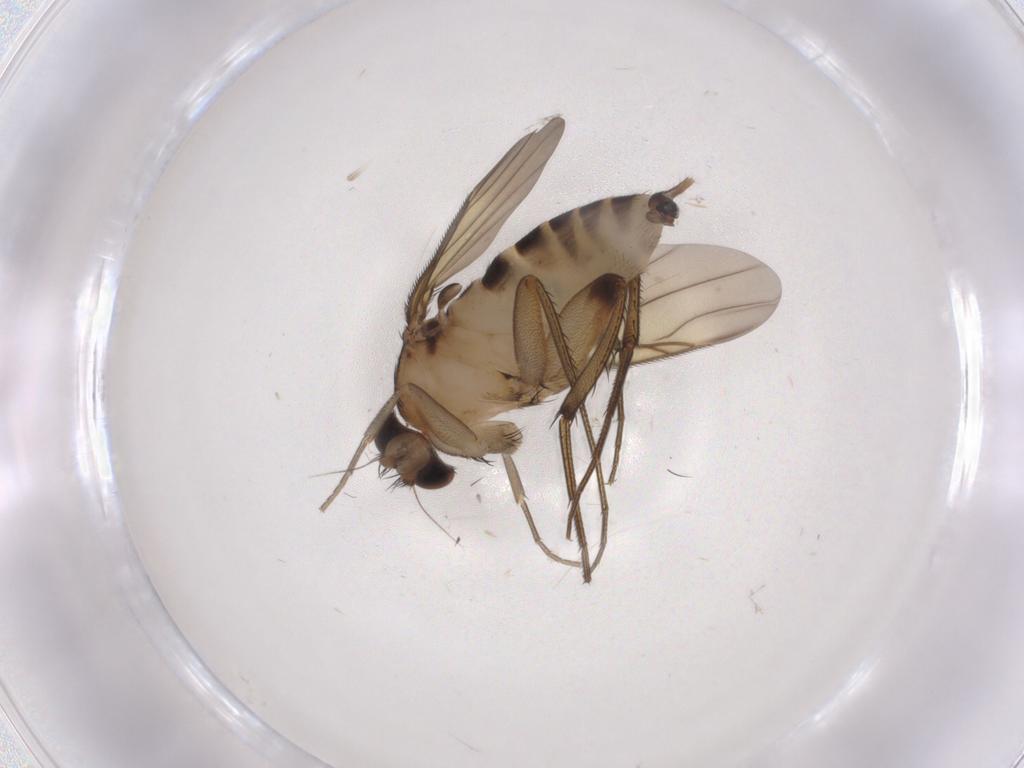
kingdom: Animalia
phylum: Arthropoda
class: Insecta
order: Diptera
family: Phoridae
